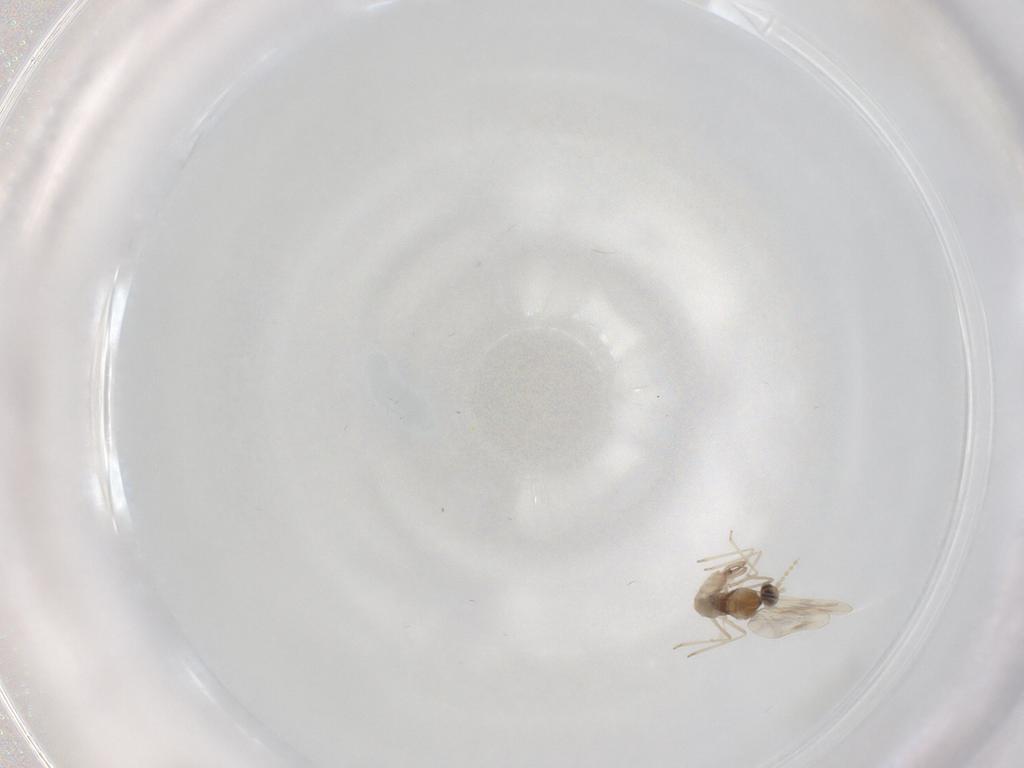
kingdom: Animalia
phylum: Arthropoda
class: Insecta
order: Diptera
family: Cecidomyiidae
